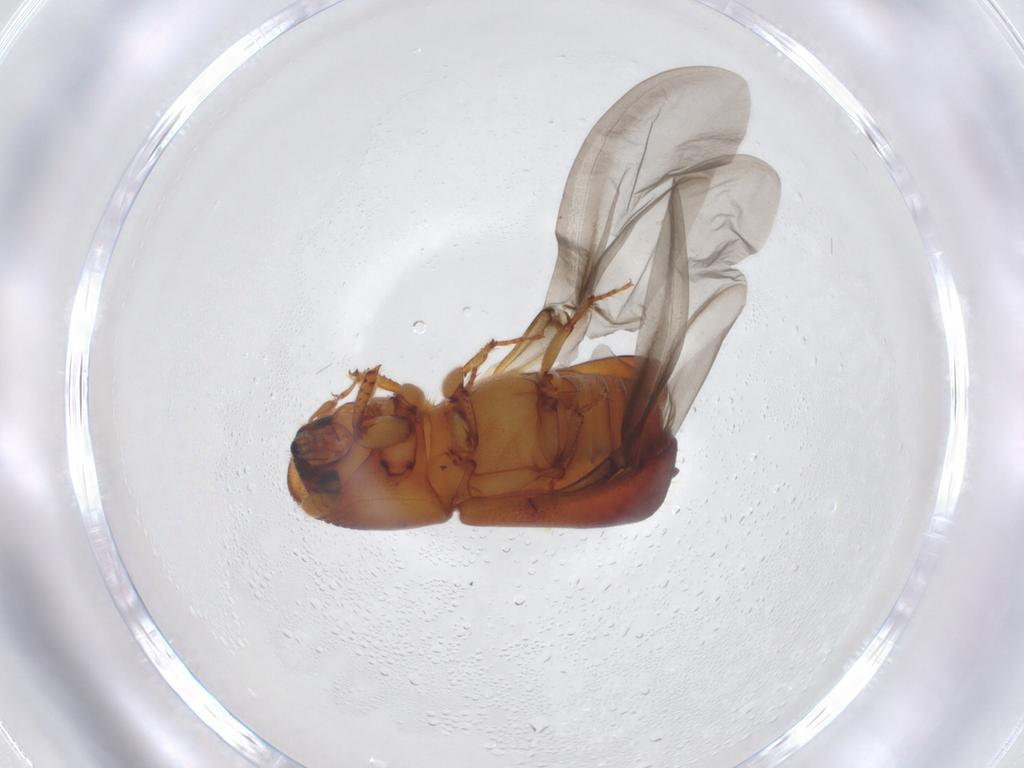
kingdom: Animalia
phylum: Arthropoda
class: Insecta
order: Coleoptera
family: Curculionidae
